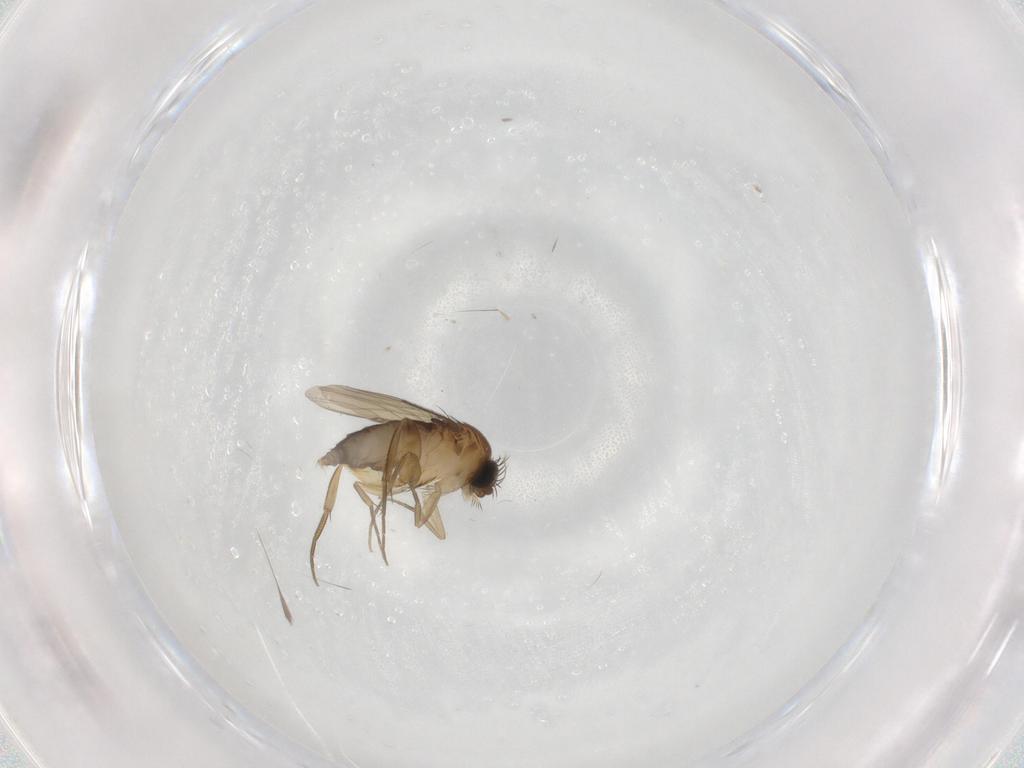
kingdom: Animalia
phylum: Arthropoda
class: Insecta
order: Diptera
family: Phoridae
